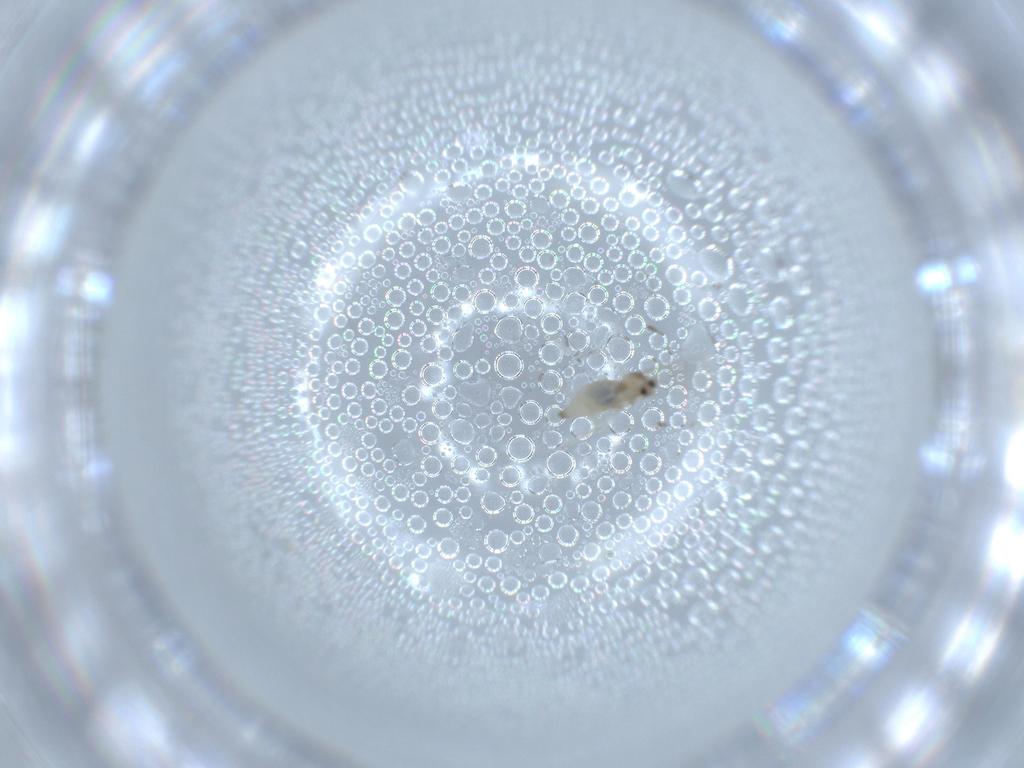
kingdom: Animalia
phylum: Arthropoda
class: Insecta
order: Diptera
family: Cecidomyiidae
